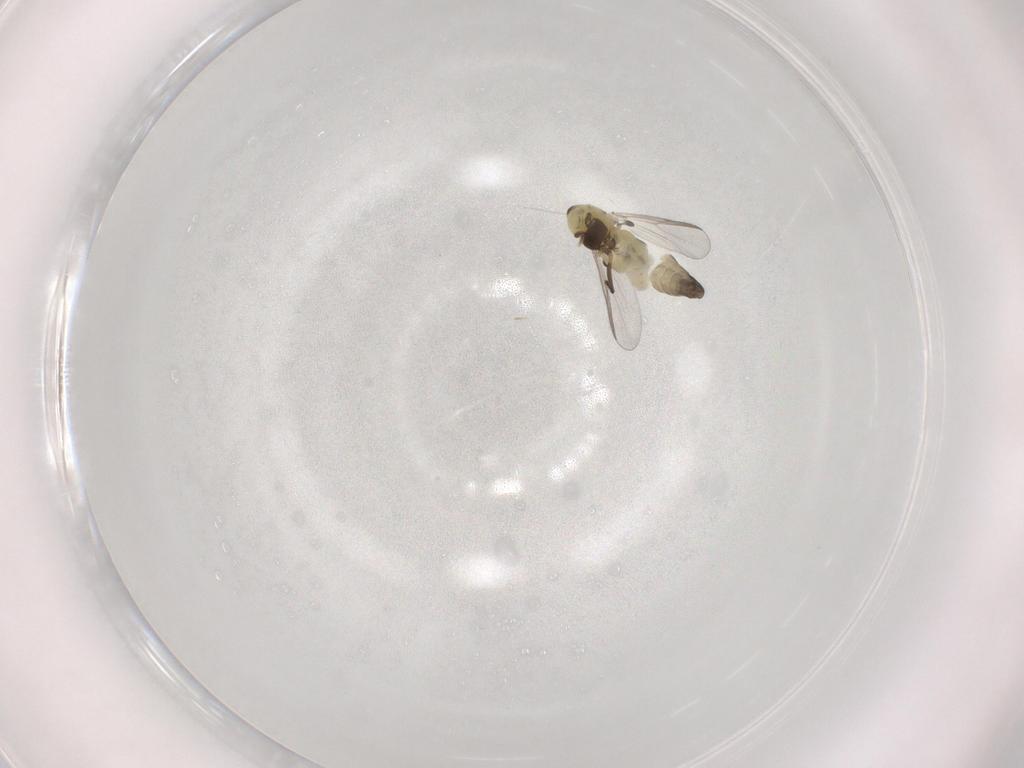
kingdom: Animalia
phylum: Arthropoda
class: Insecta
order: Diptera
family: Chironomidae
